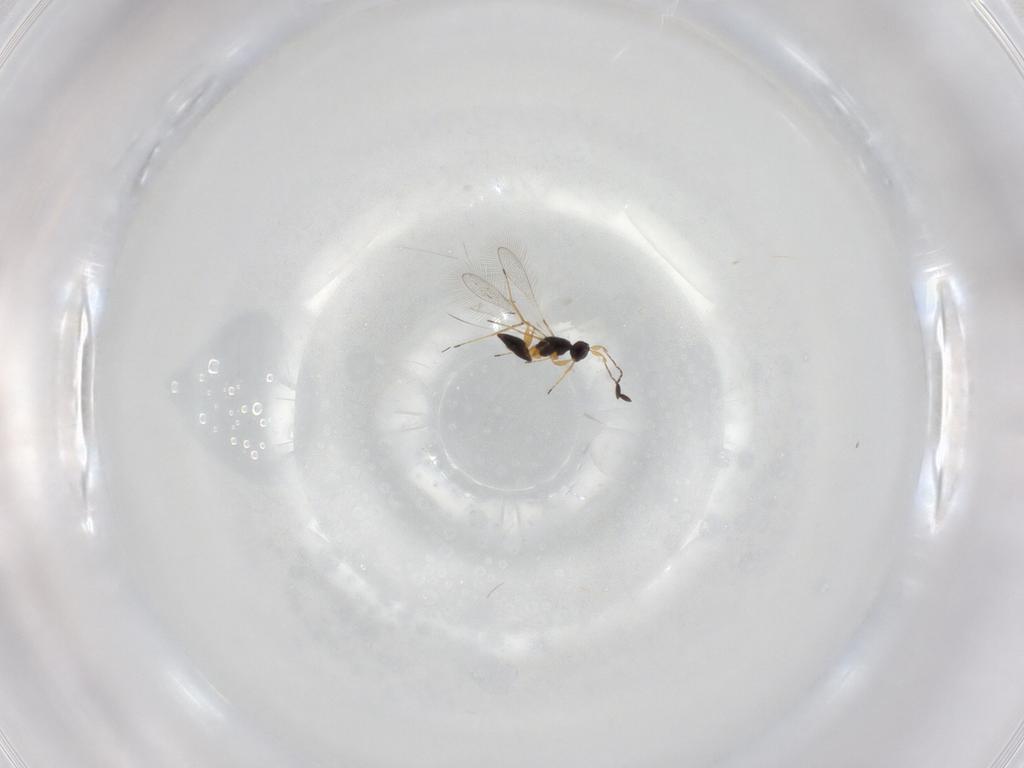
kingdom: Animalia
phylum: Arthropoda
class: Insecta
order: Hymenoptera
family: Mymaridae
